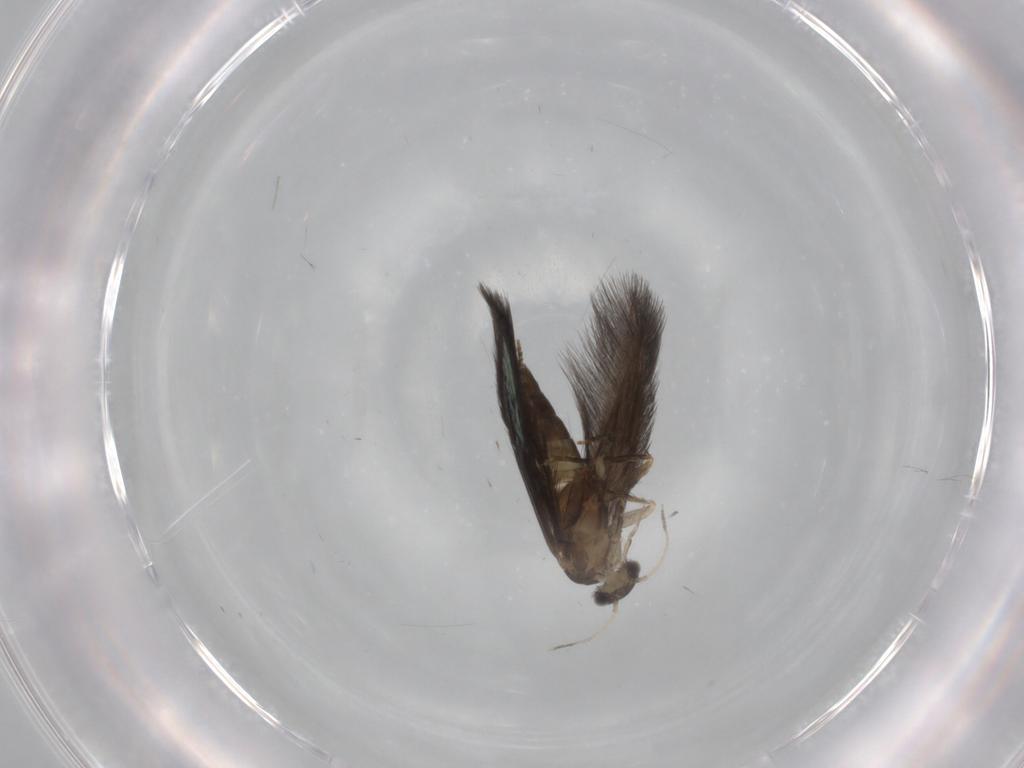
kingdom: Animalia
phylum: Arthropoda
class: Insecta
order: Trichoptera
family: Hydroptilidae
